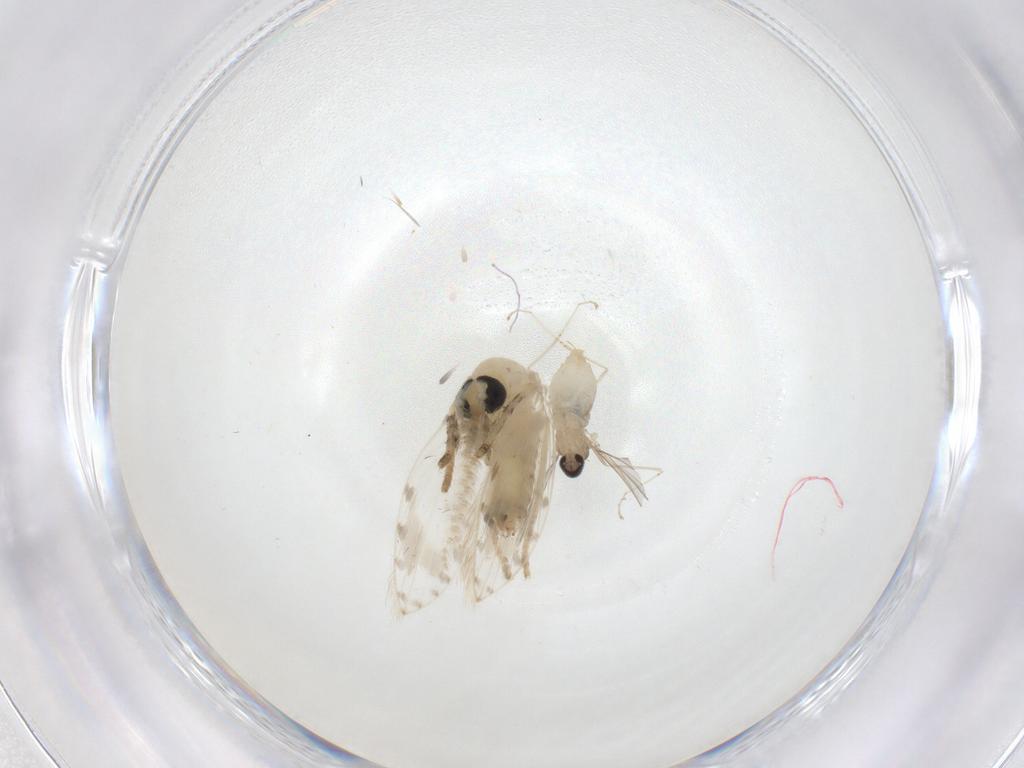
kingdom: Animalia
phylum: Arthropoda
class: Insecta
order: Diptera
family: Psychodidae
